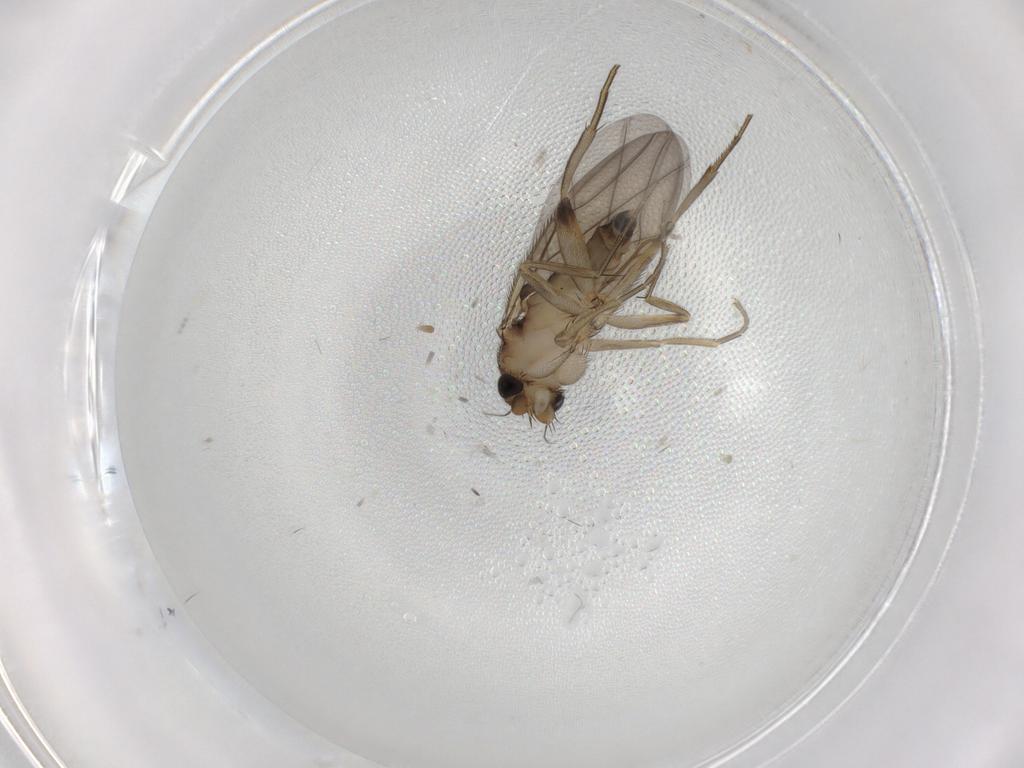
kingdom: Animalia
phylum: Arthropoda
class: Insecta
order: Diptera
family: Phoridae
